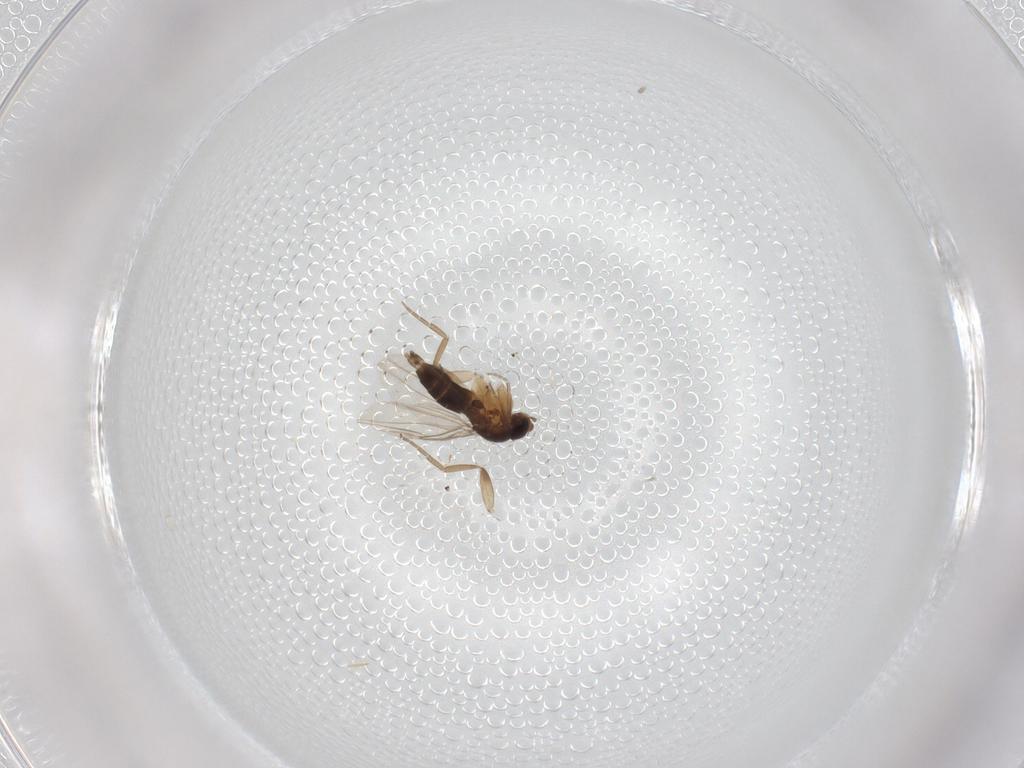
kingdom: Animalia
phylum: Arthropoda
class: Insecta
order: Diptera
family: Phoridae
